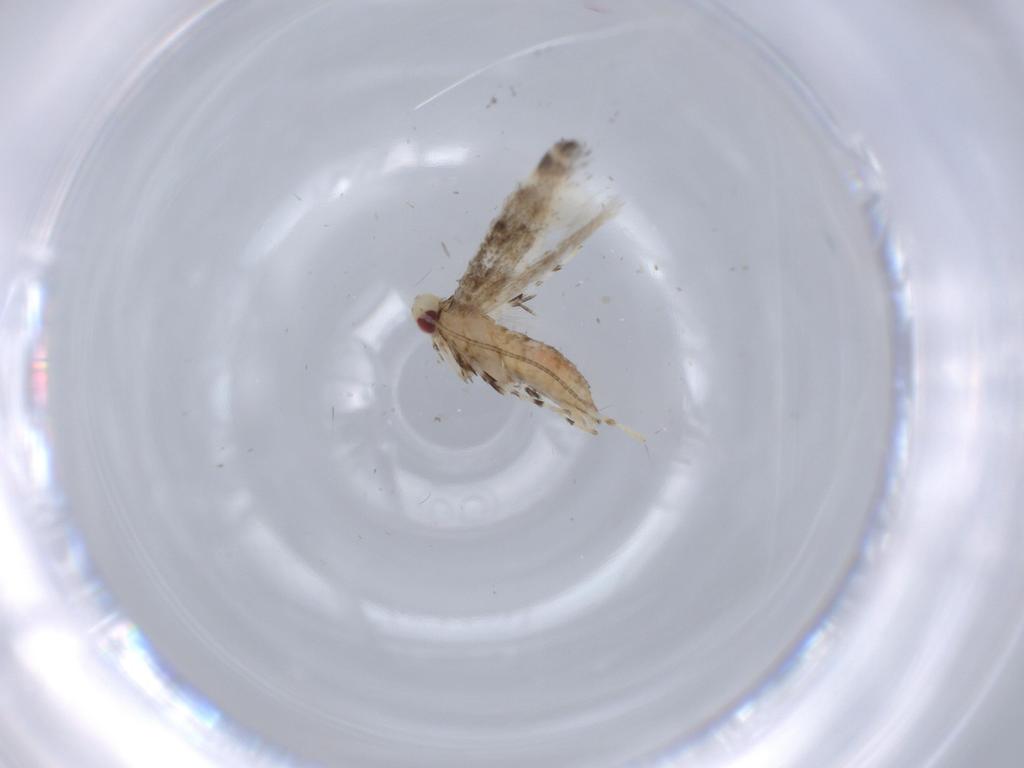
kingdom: Animalia
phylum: Arthropoda
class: Insecta
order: Lepidoptera
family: Gracillariidae
